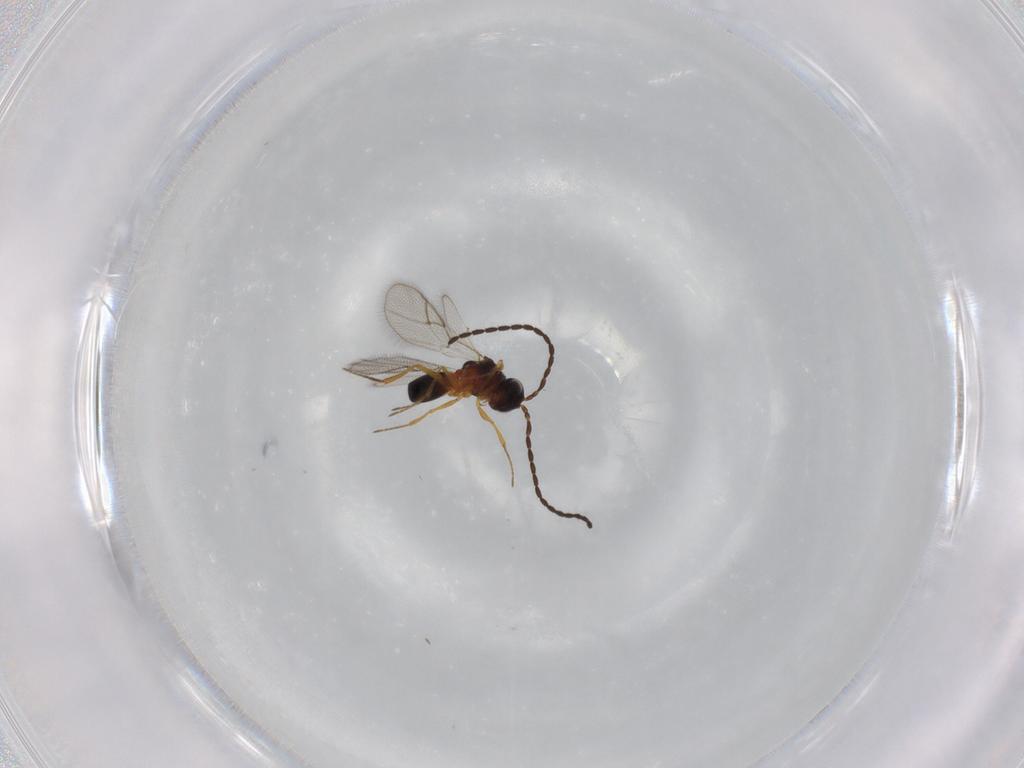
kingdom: Animalia
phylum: Arthropoda
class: Insecta
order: Hymenoptera
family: Figitidae
